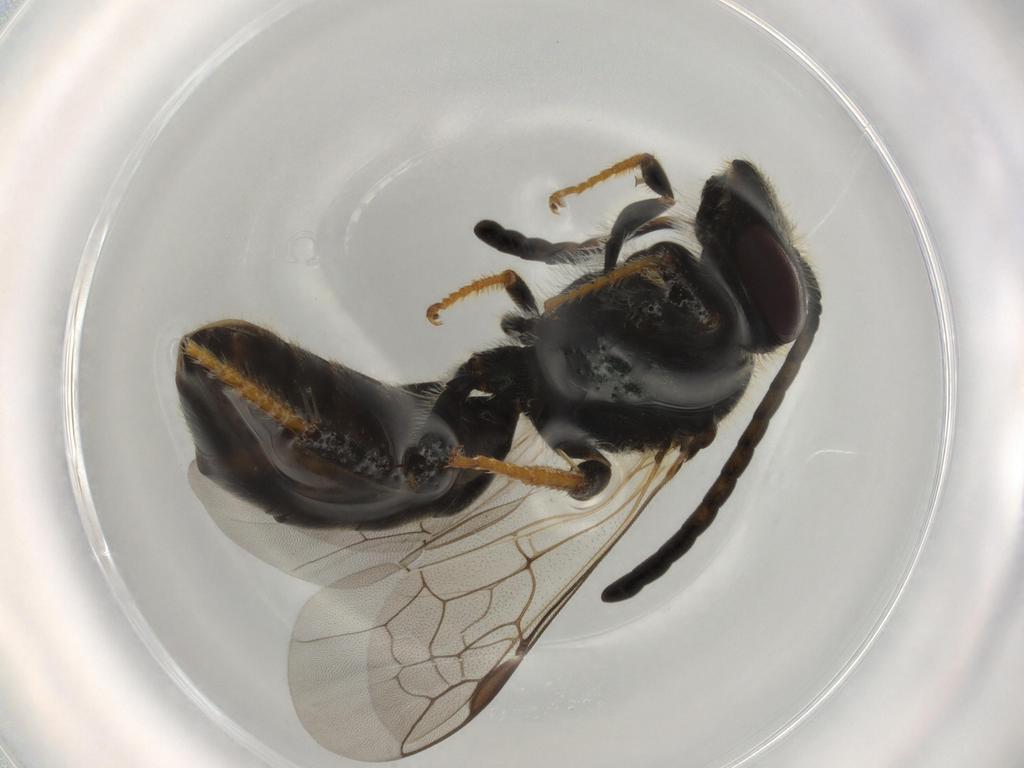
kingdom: Animalia
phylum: Arthropoda
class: Insecta
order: Hymenoptera
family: Halictidae
